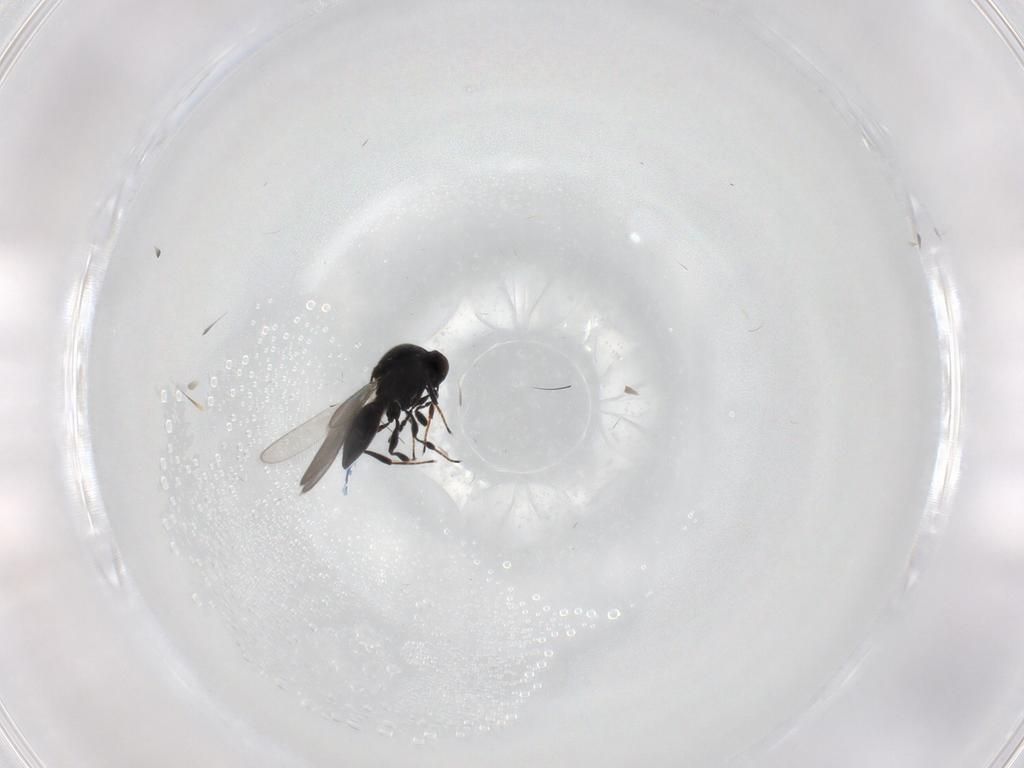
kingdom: Animalia
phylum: Arthropoda
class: Insecta
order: Hymenoptera
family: Platygastridae
